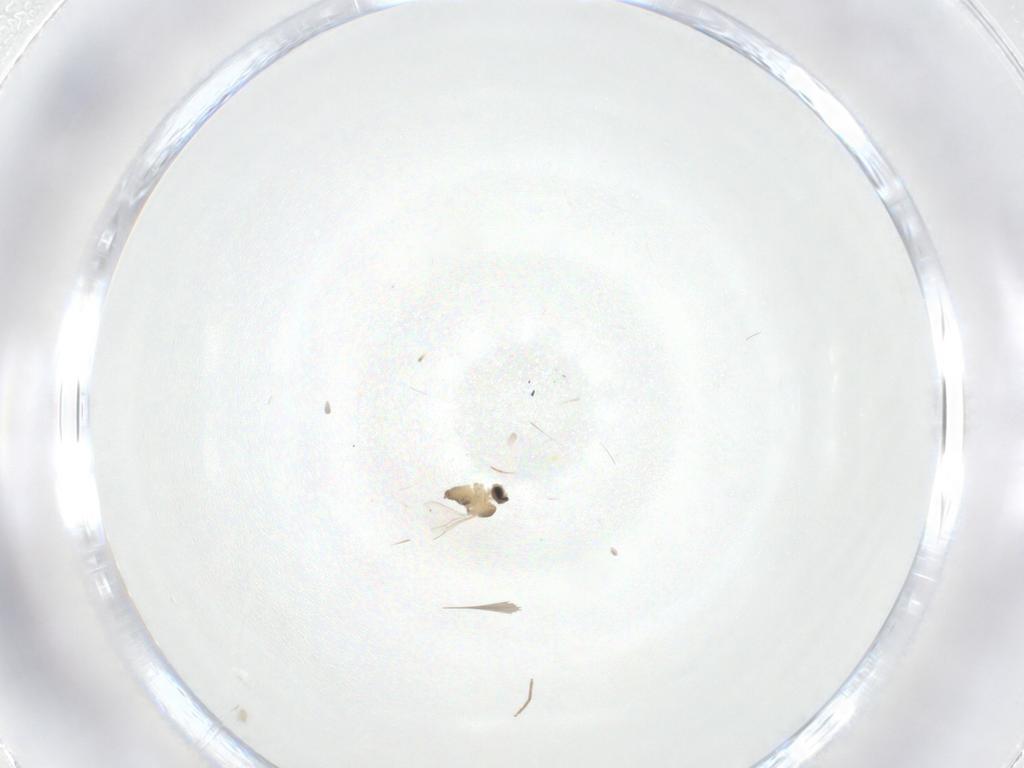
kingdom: Animalia
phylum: Arthropoda
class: Insecta
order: Diptera
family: Cecidomyiidae
